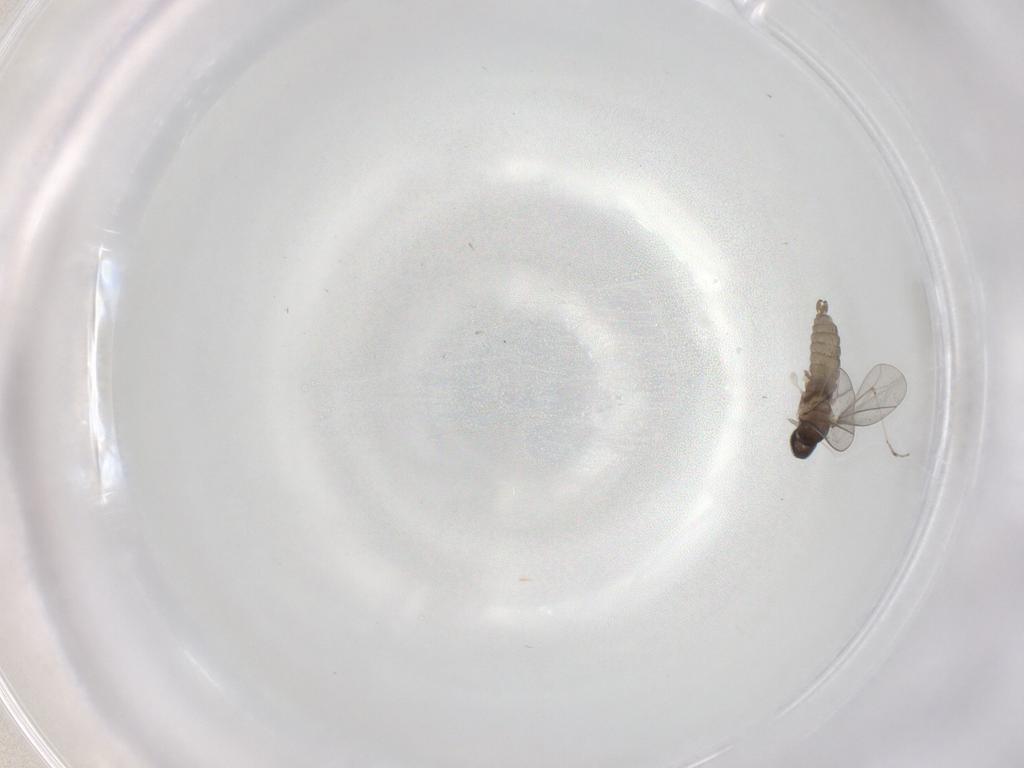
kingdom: Animalia
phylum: Arthropoda
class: Insecta
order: Diptera
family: Cecidomyiidae
